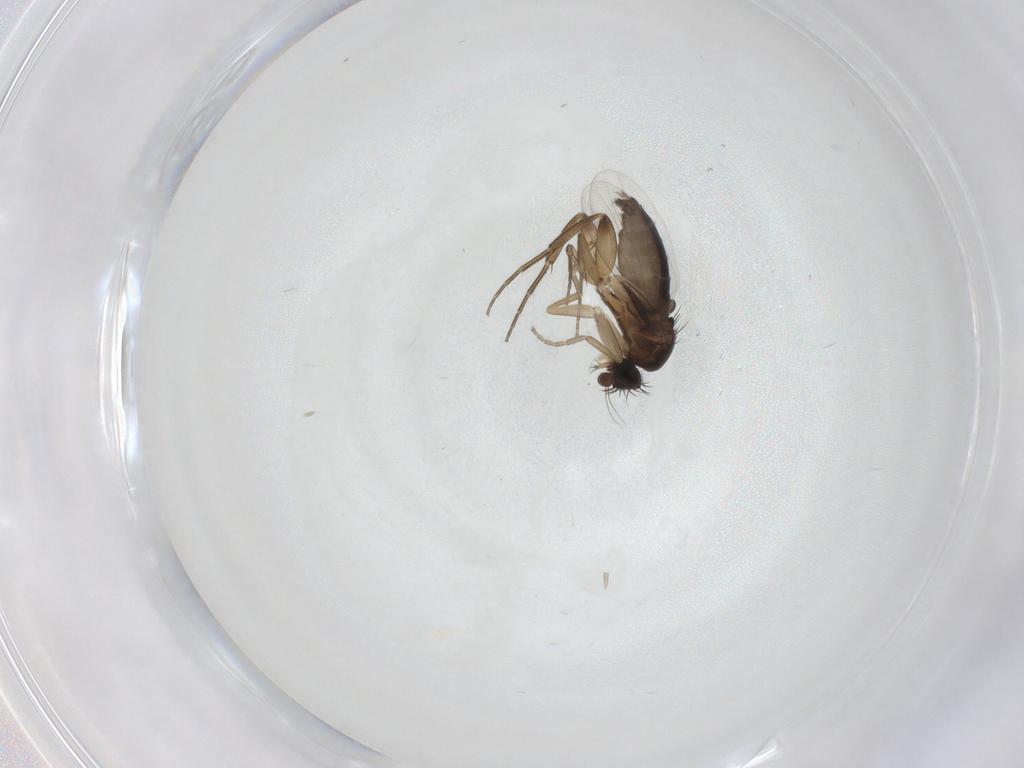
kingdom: Animalia
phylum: Arthropoda
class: Insecta
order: Diptera
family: Phoridae
